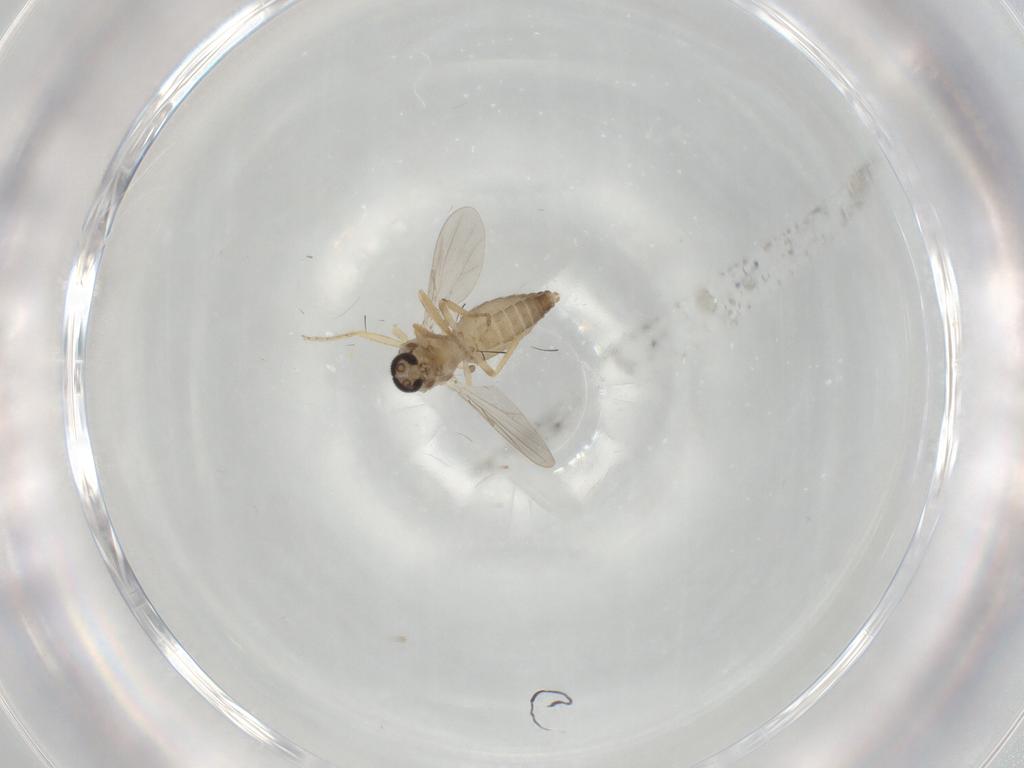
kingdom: Animalia
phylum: Arthropoda
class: Insecta
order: Diptera
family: Ceratopogonidae
